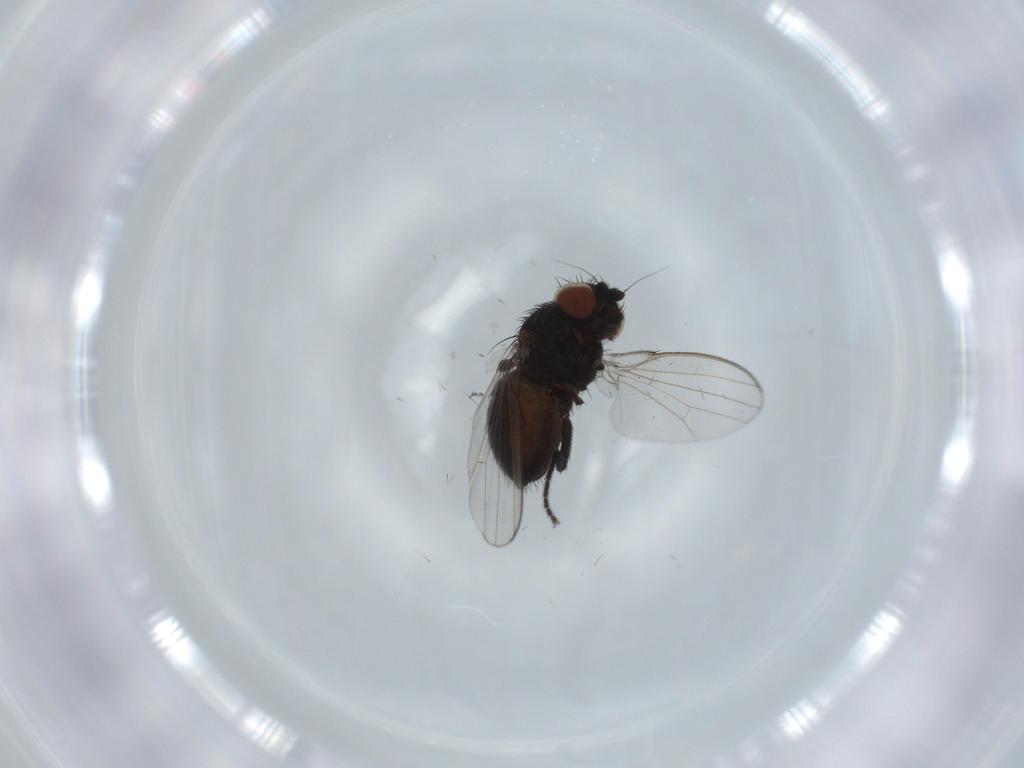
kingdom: Animalia
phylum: Arthropoda
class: Insecta
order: Diptera
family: Milichiidae
